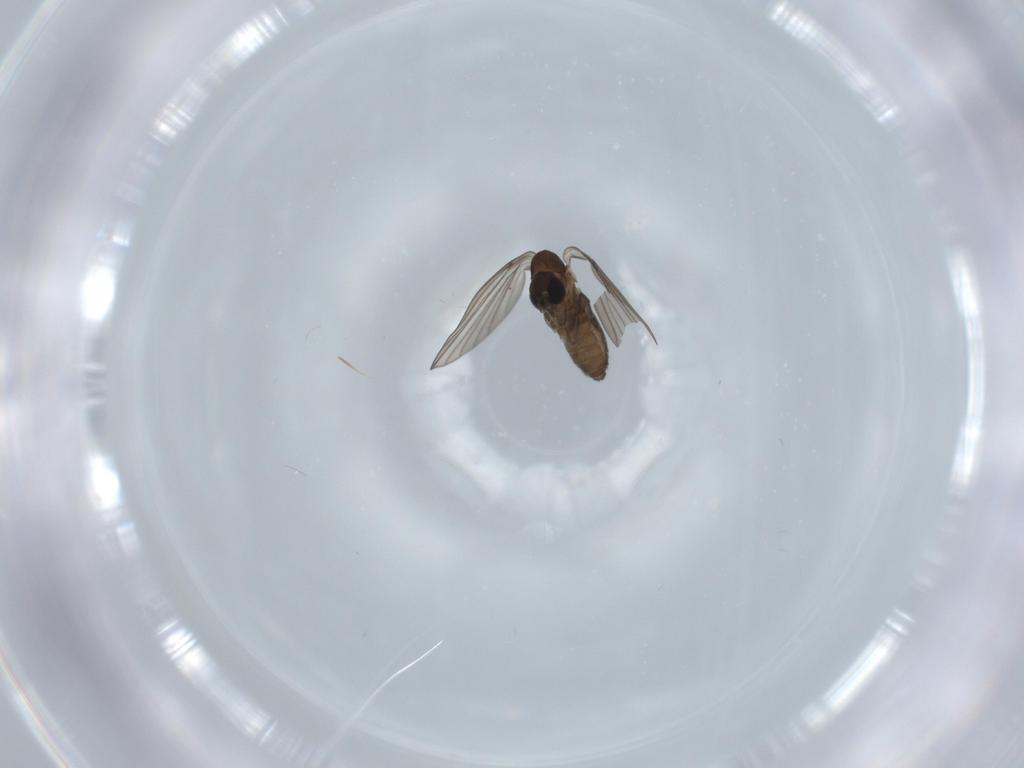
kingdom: Animalia
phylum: Arthropoda
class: Insecta
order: Diptera
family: Psychodidae
